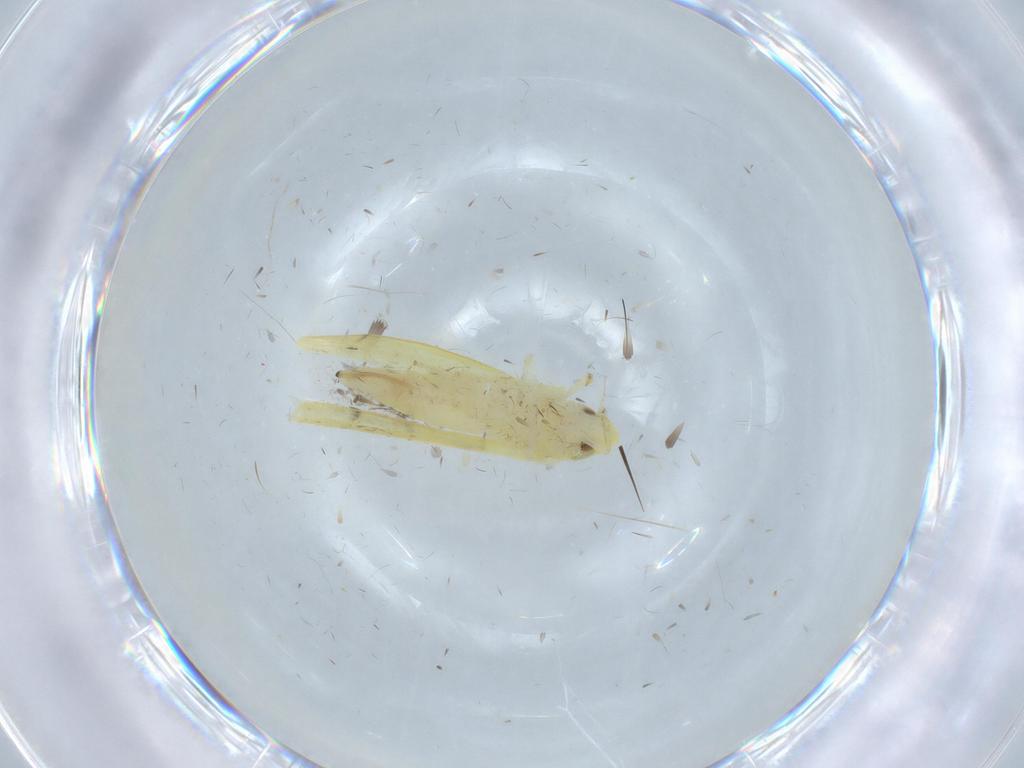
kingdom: Animalia
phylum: Arthropoda
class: Insecta
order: Hemiptera
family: Cicadellidae
